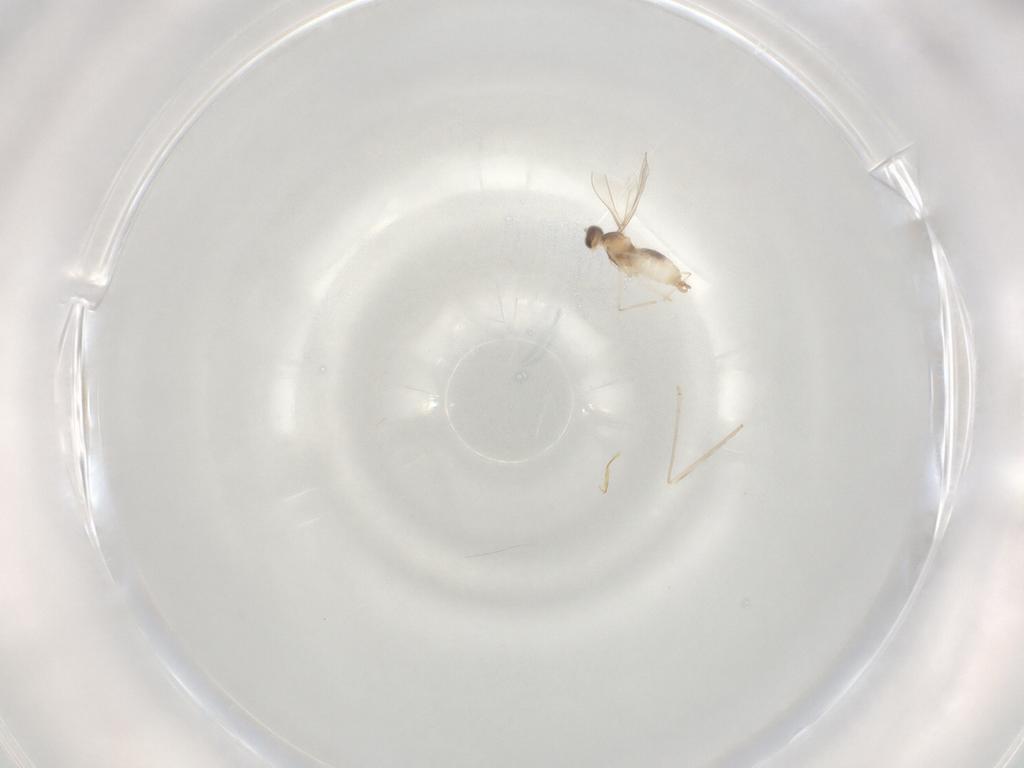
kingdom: Animalia
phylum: Arthropoda
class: Insecta
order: Diptera
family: Cecidomyiidae
